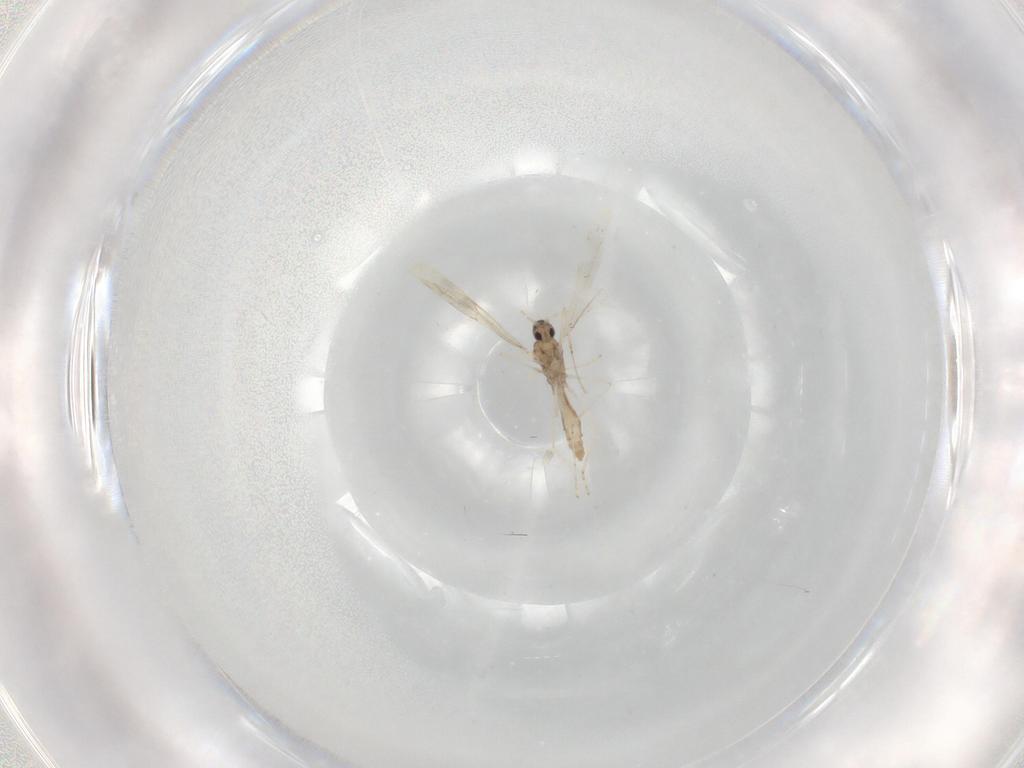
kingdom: Animalia
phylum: Arthropoda
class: Insecta
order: Diptera
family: Cecidomyiidae
